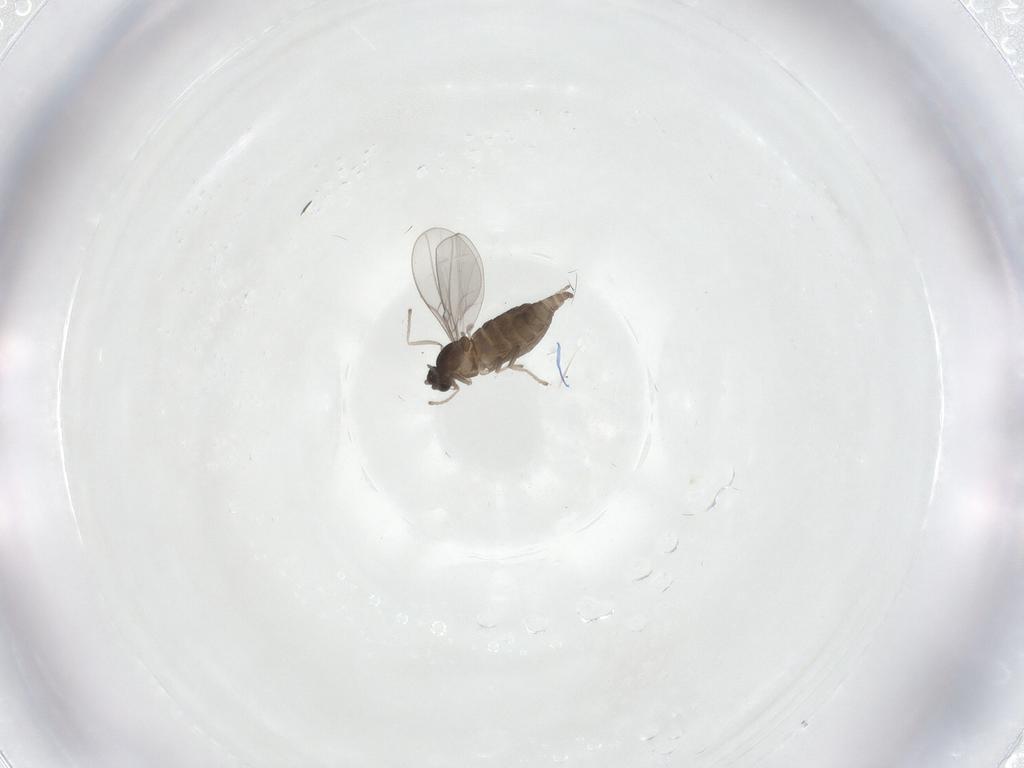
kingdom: Animalia
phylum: Arthropoda
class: Insecta
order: Diptera
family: Cecidomyiidae
